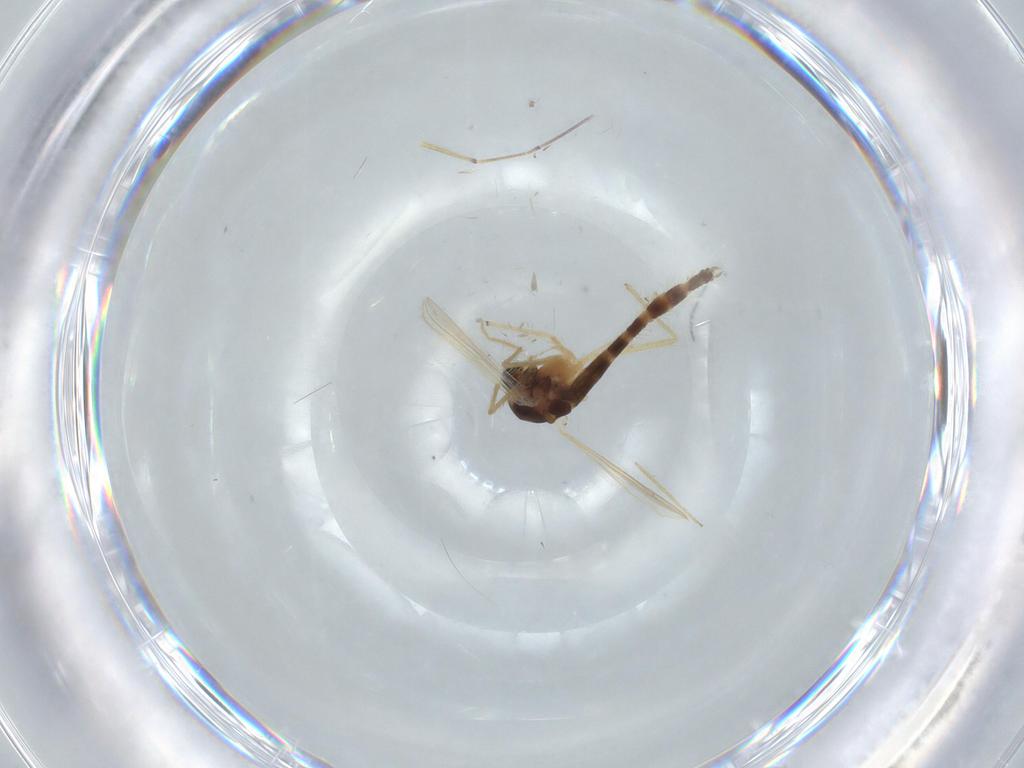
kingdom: Animalia
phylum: Arthropoda
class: Insecta
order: Diptera
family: Chironomidae
